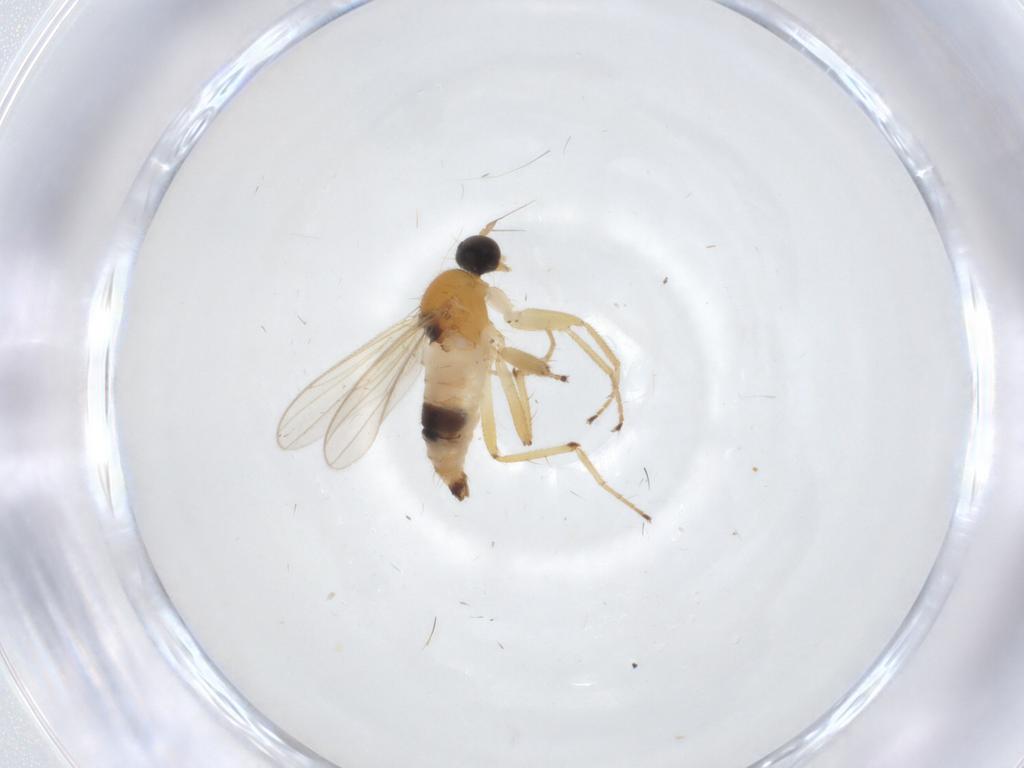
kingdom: Animalia
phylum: Arthropoda
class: Insecta
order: Diptera
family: Hybotidae
